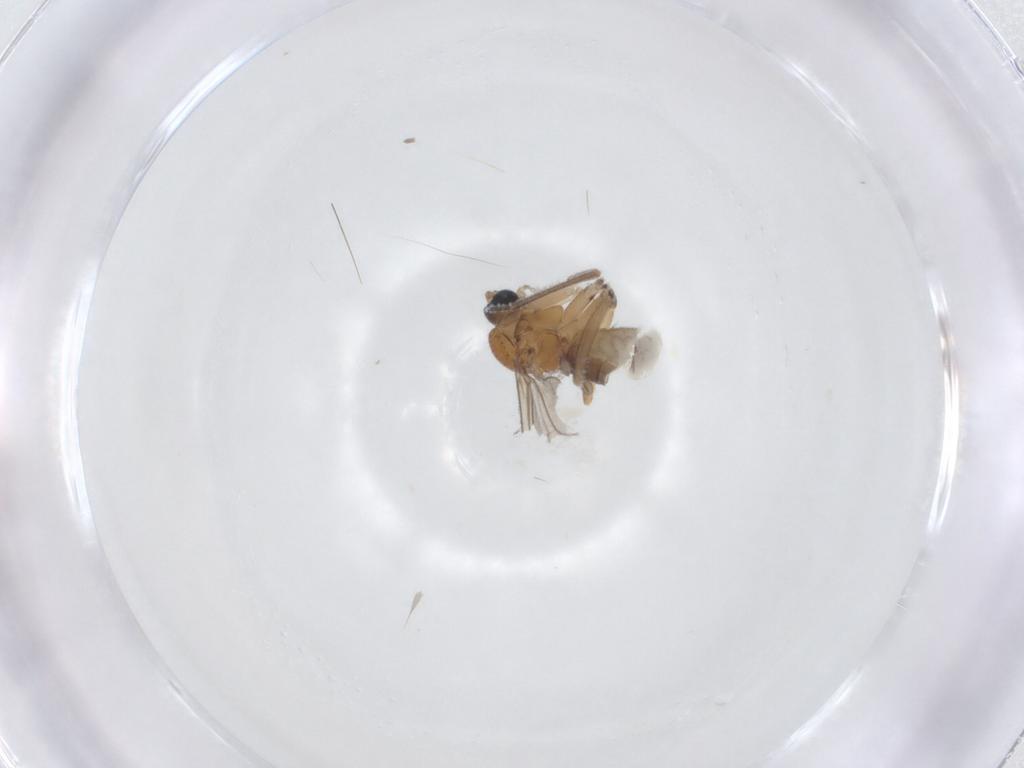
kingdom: Animalia
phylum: Arthropoda
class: Insecta
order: Diptera
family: Sciaridae
